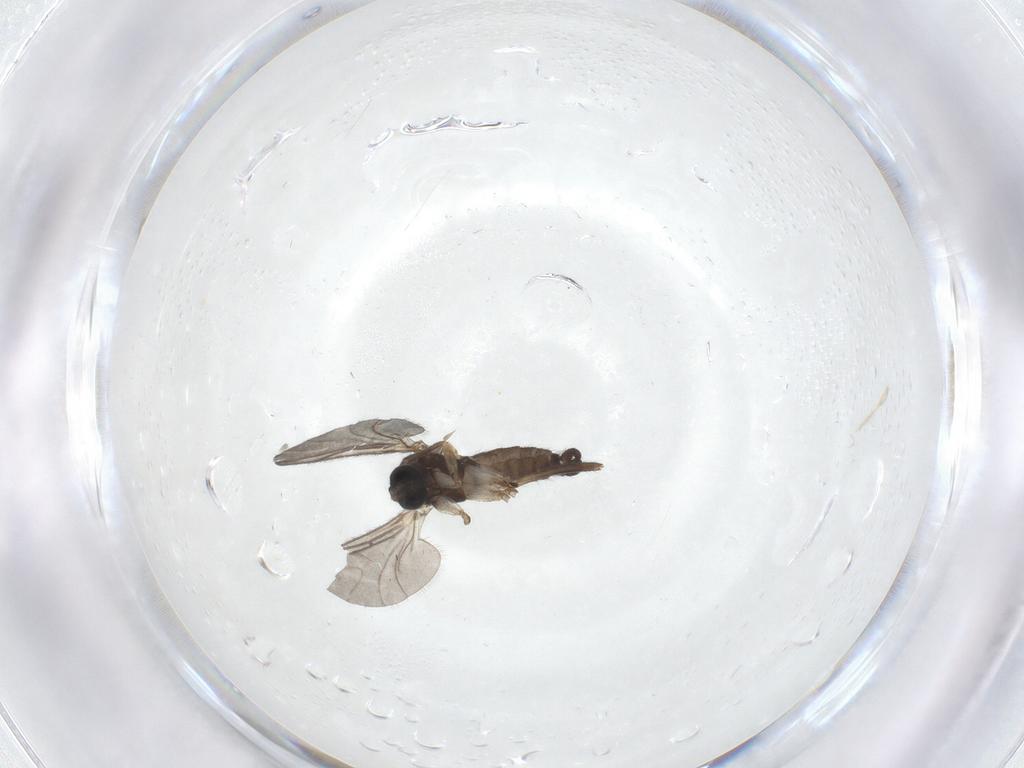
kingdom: Animalia
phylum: Arthropoda
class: Insecta
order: Diptera
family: Sciaridae
